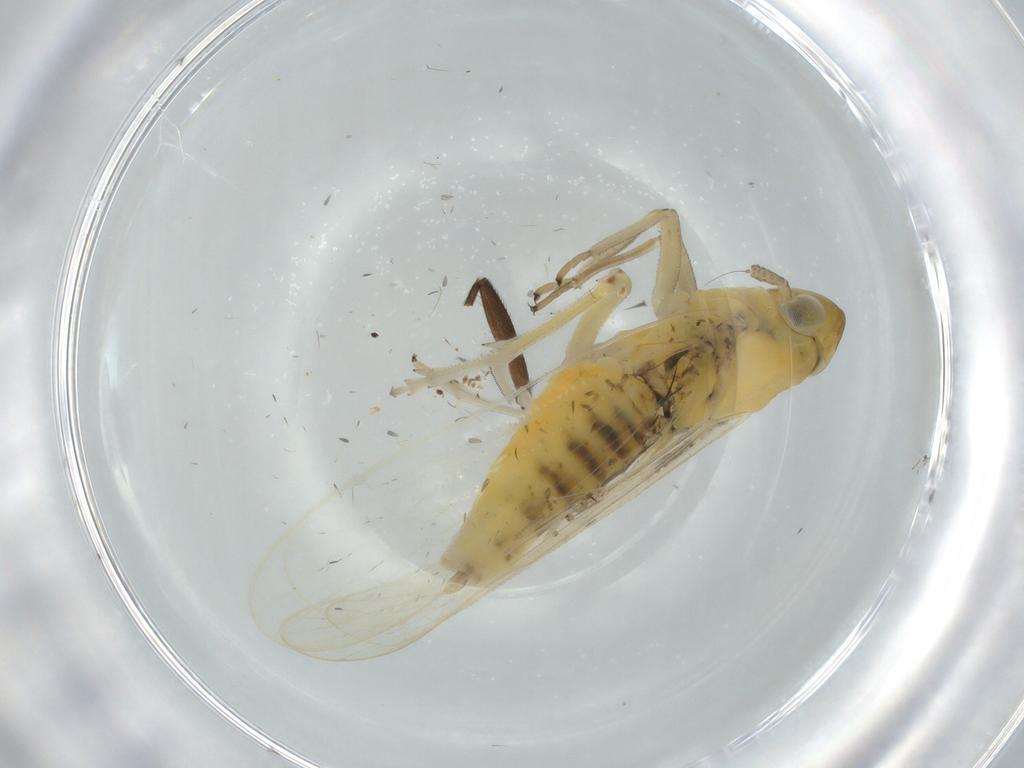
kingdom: Animalia
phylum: Arthropoda
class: Insecta
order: Hemiptera
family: Delphacidae
